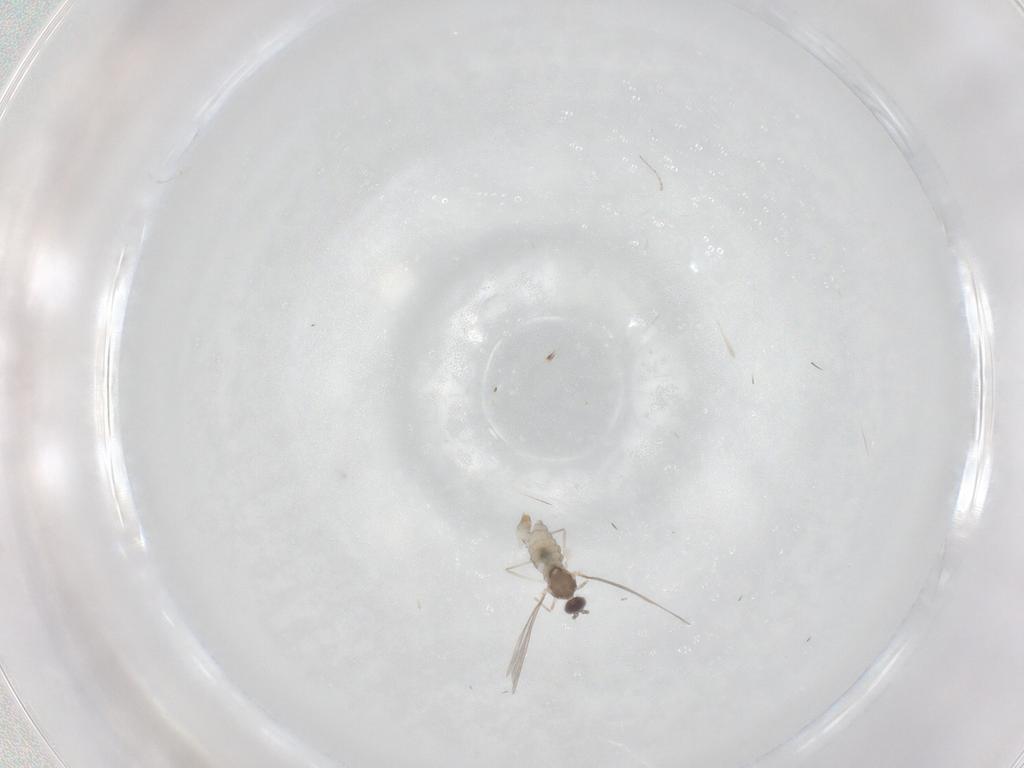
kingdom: Animalia
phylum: Arthropoda
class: Insecta
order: Diptera
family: Cecidomyiidae
